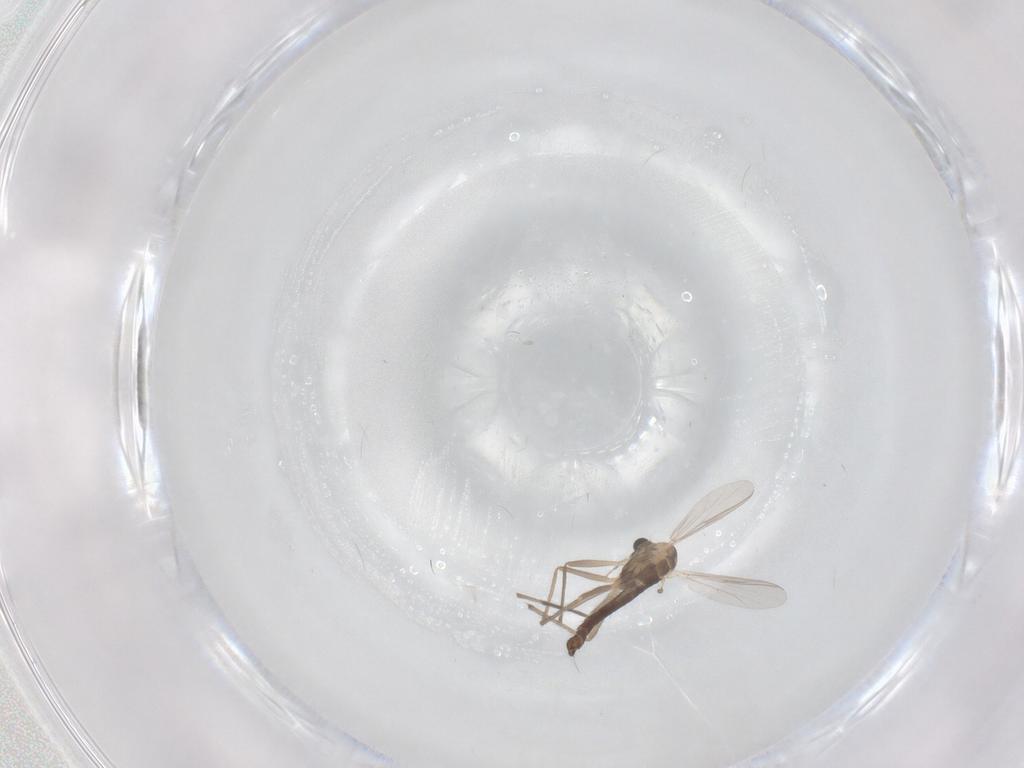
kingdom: Animalia
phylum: Arthropoda
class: Insecta
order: Diptera
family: Chironomidae
